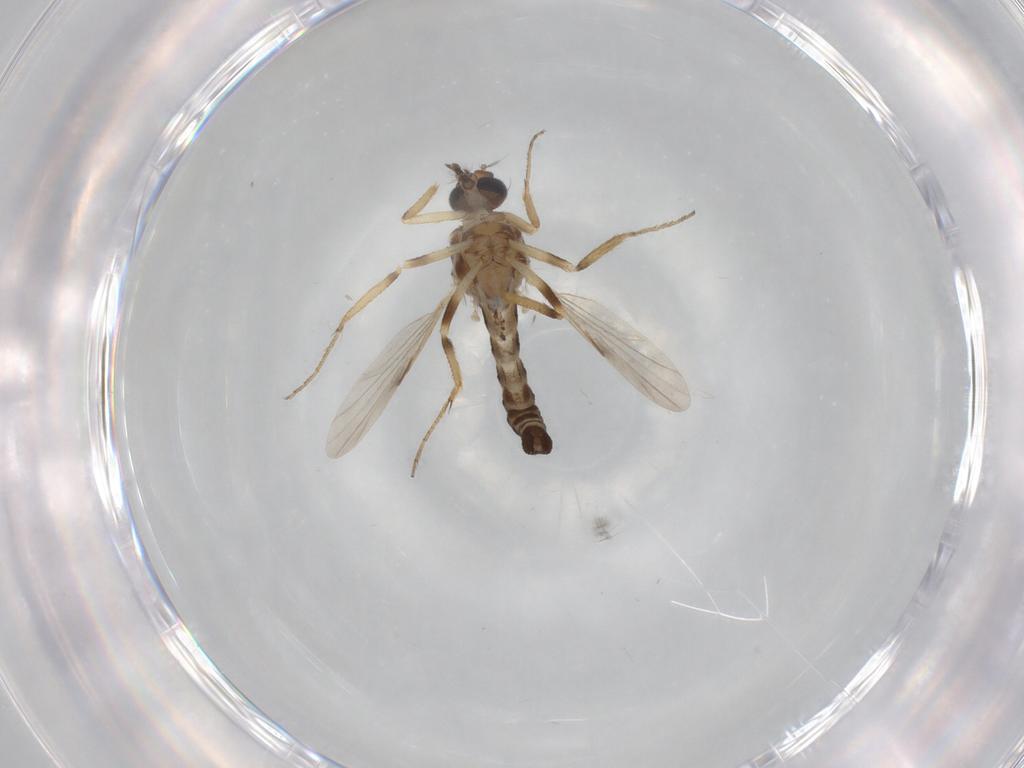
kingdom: Animalia
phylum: Arthropoda
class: Insecta
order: Diptera
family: Ceratopogonidae
